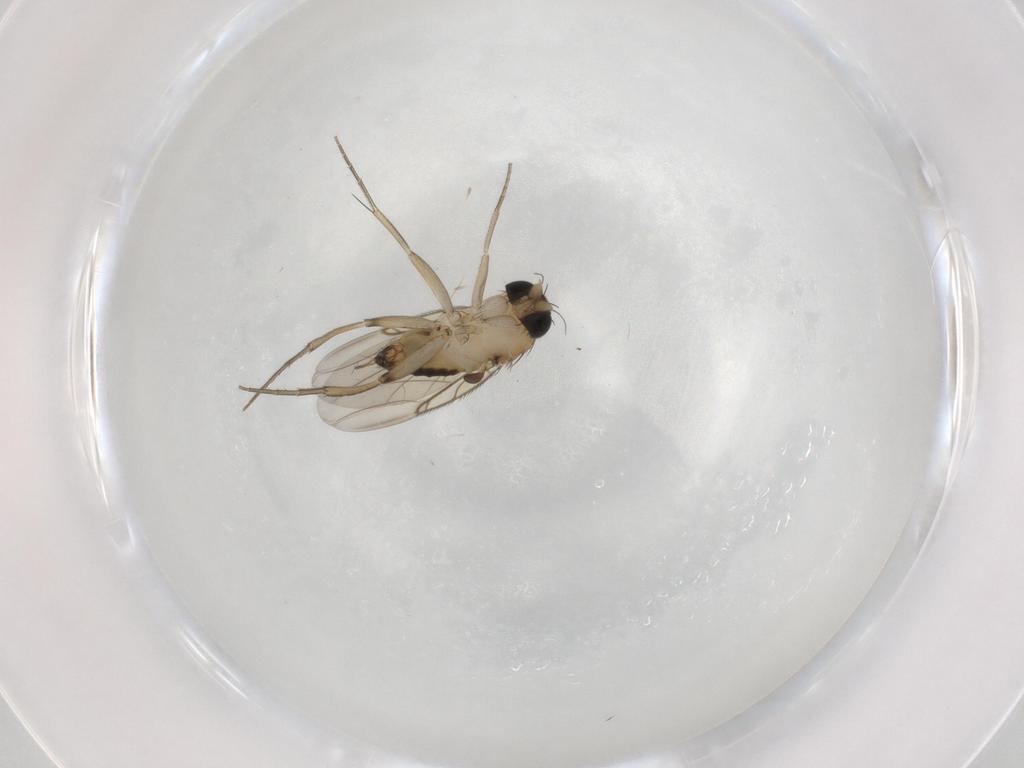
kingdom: Animalia
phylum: Arthropoda
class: Insecta
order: Diptera
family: Phoridae
